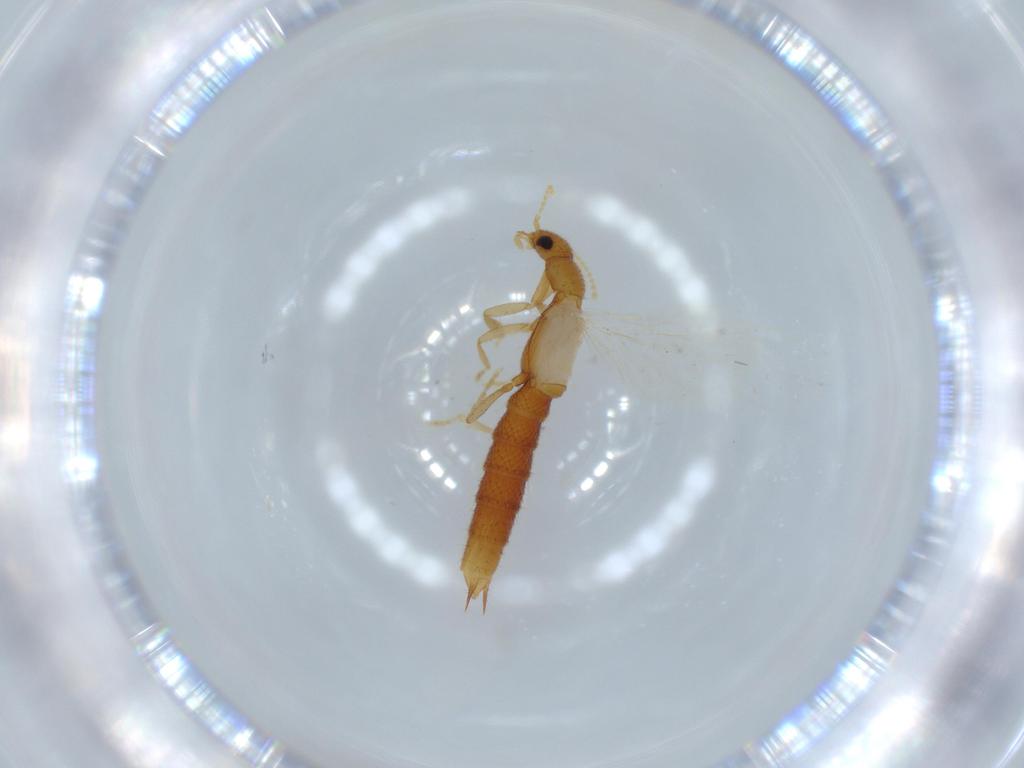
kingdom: Animalia
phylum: Arthropoda
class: Insecta
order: Coleoptera
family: Staphylinidae
